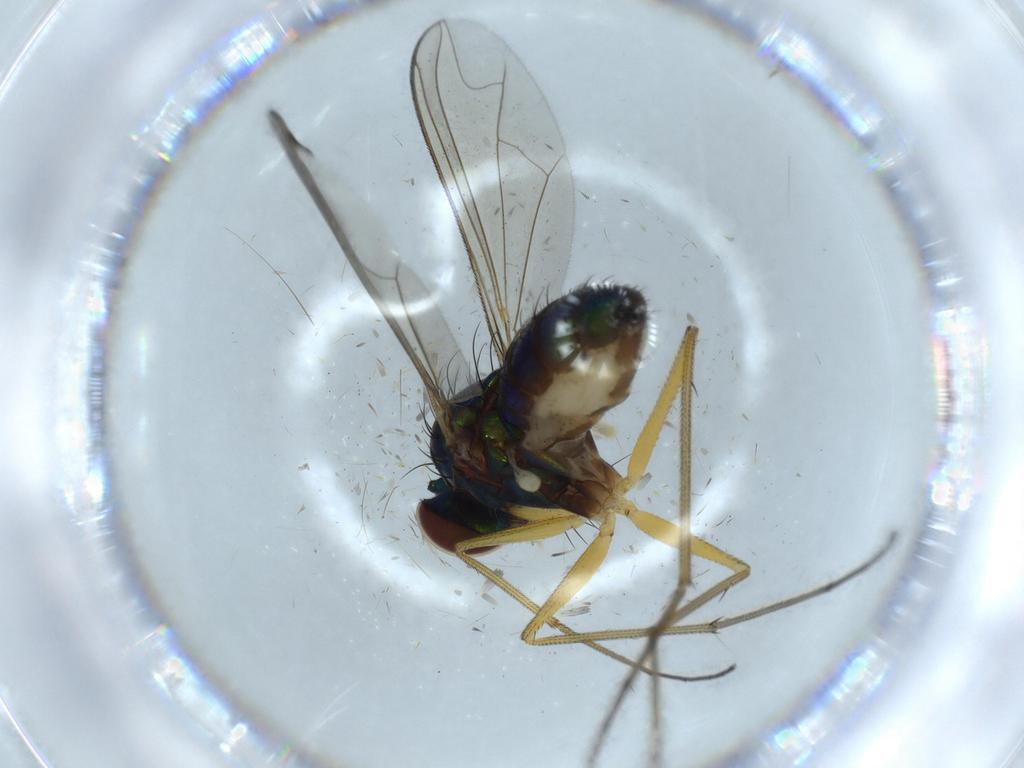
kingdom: Animalia
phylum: Arthropoda
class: Insecta
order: Diptera
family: Dolichopodidae
